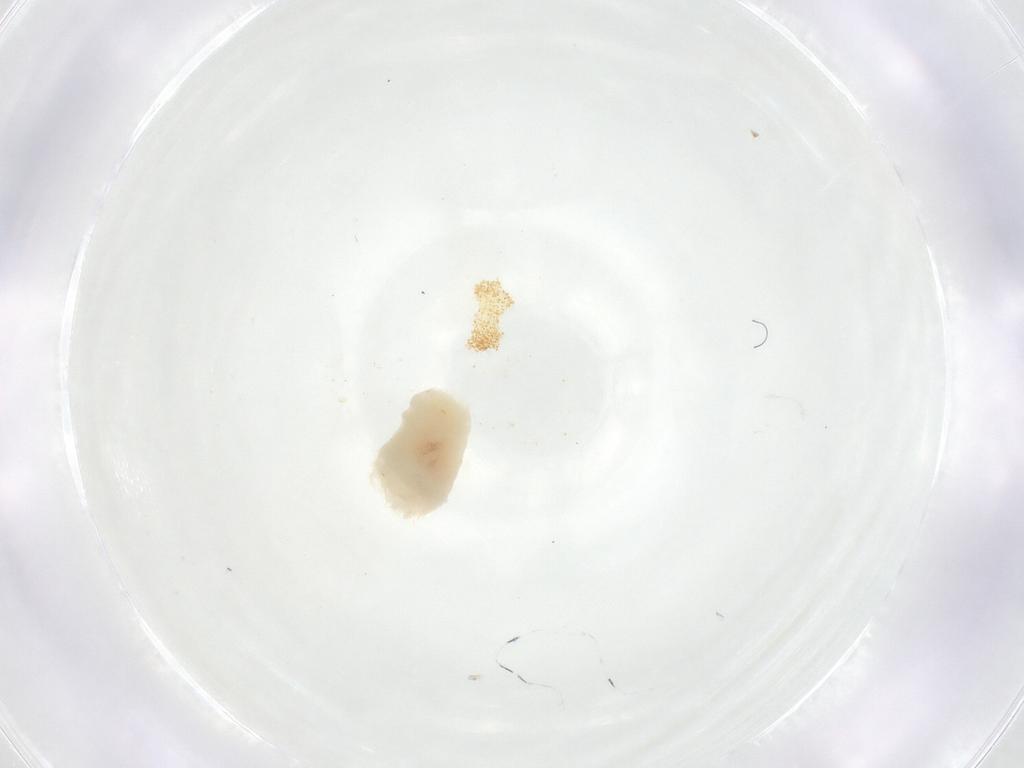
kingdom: Animalia
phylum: Arthropoda
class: Insecta
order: Diptera
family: Fergusoninidae
